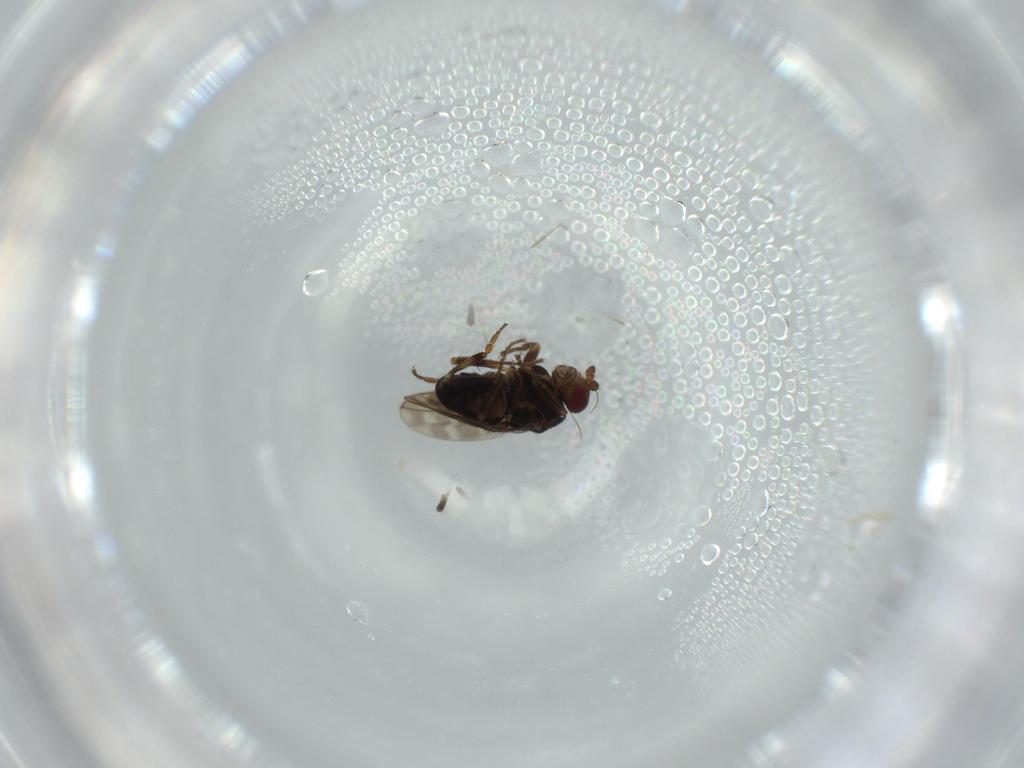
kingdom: Animalia
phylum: Arthropoda
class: Insecta
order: Diptera
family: Sphaeroceridae
